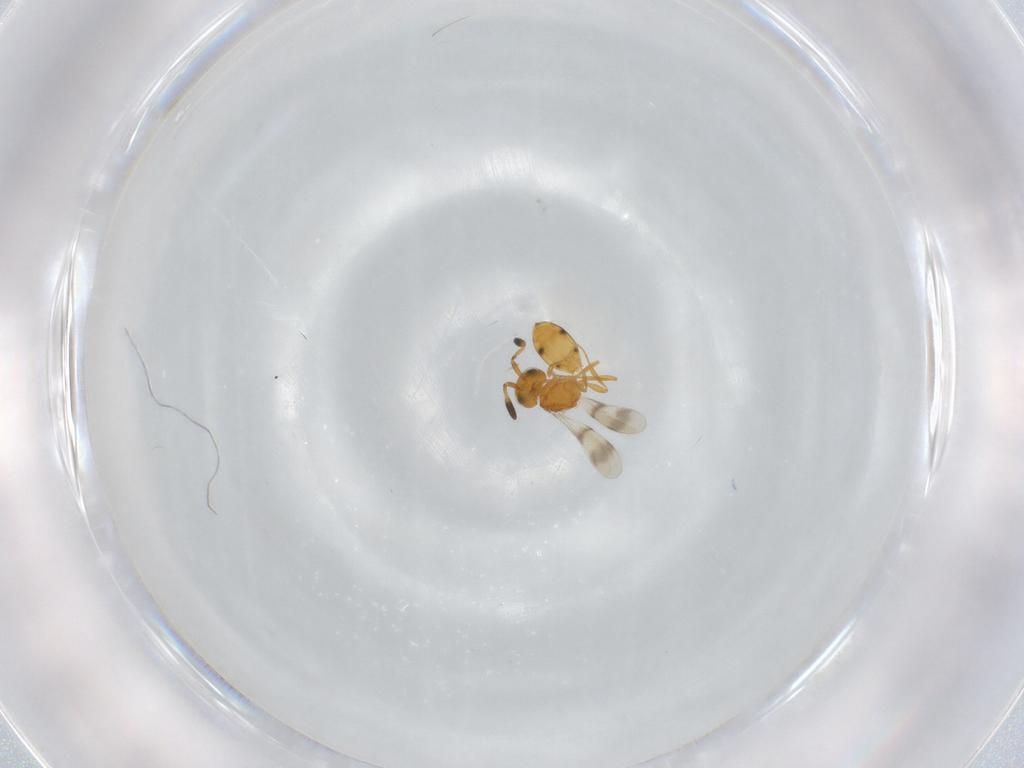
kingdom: Animalia
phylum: Arthropoda
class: Insecta
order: Hymenoptera
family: Scelionidae
